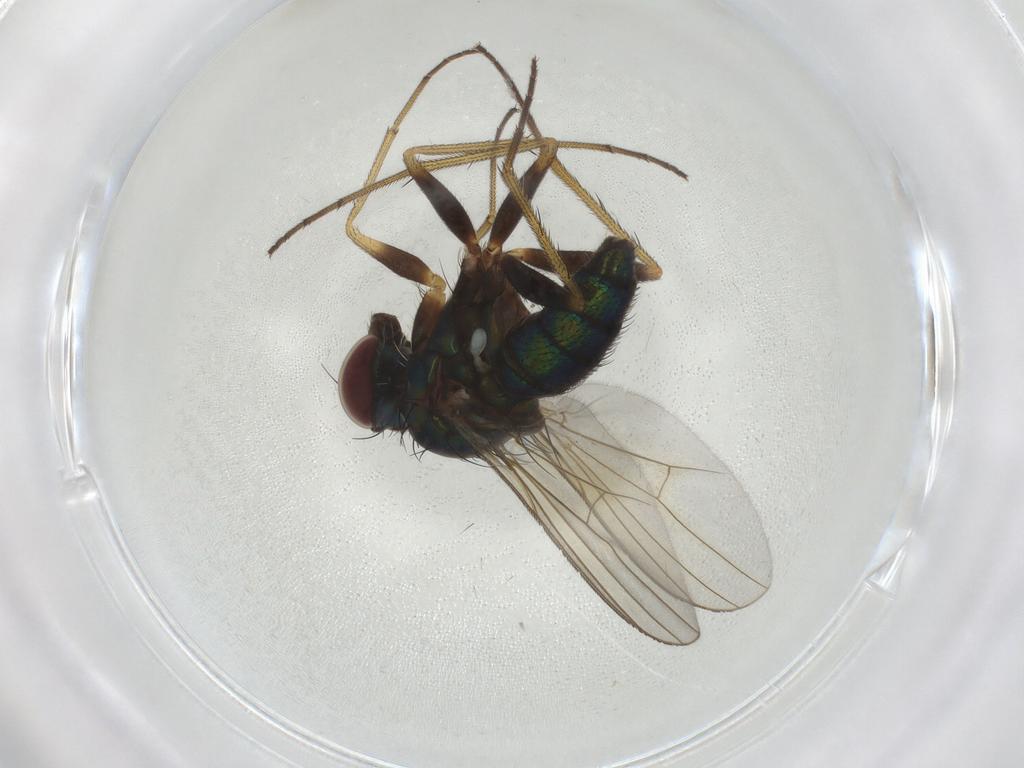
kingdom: Animalia
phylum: Arthropoda
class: Insecta
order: Diptera
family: Dolichopodidae
